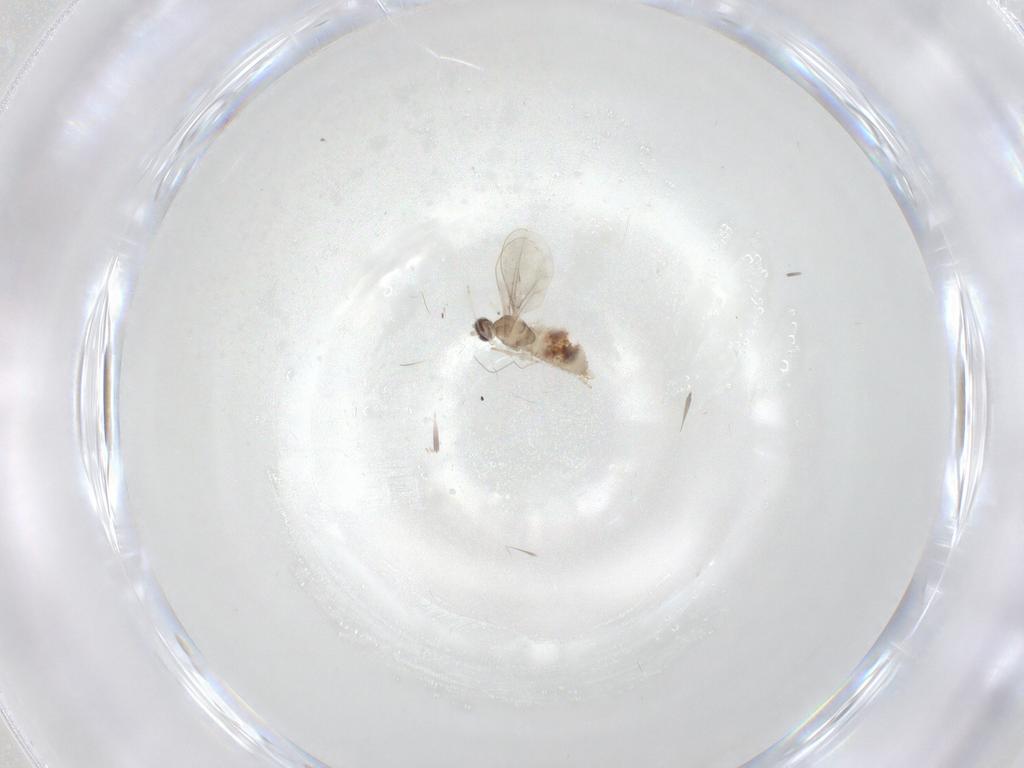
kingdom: Animalia
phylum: Arthropoda
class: Insecta
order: Diptera
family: Cecidomyiidae
